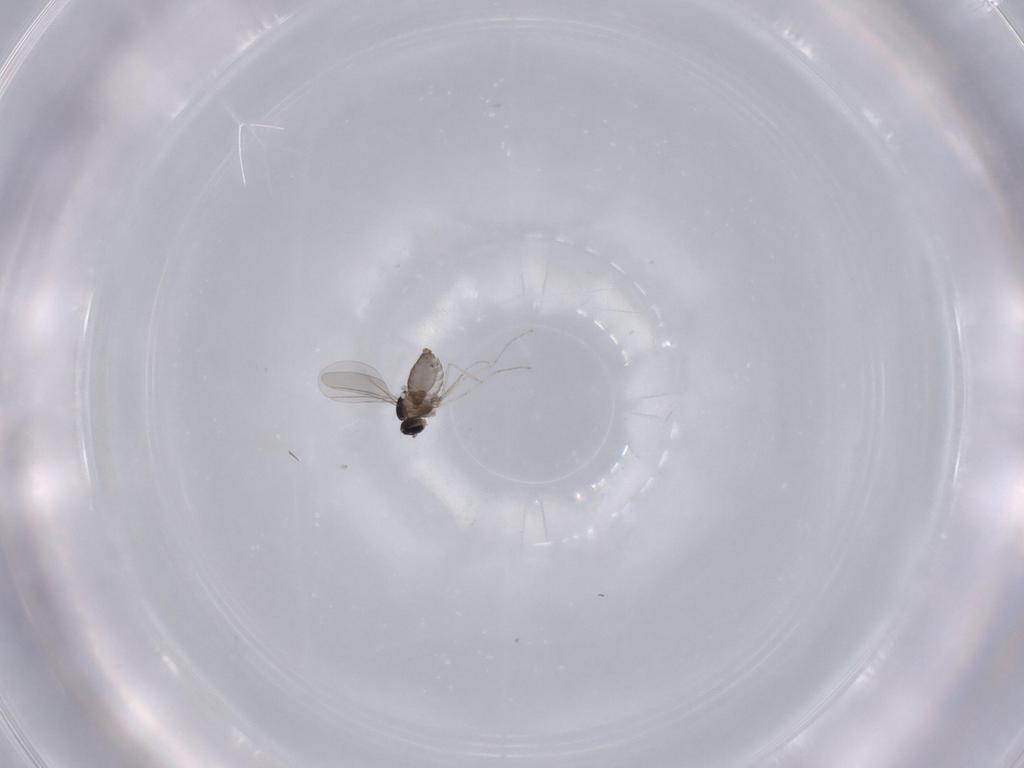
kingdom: Animalia
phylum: Arthropoda
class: Insecta
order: Diptera
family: Cecidomyiidae
